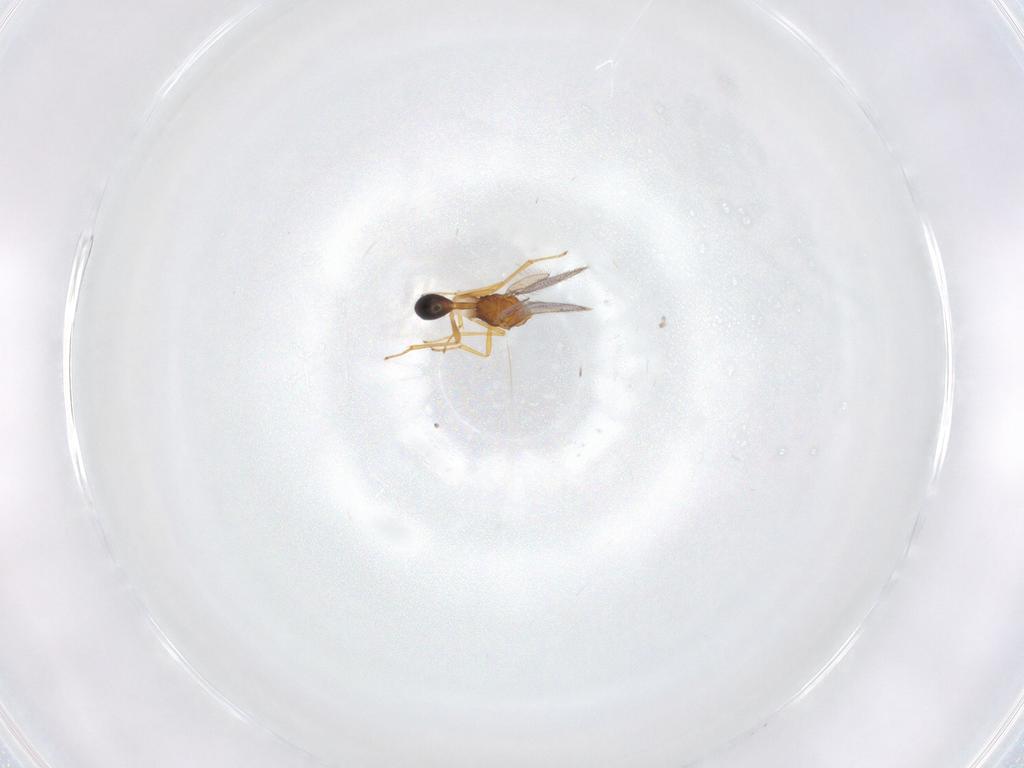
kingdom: Animalia
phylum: Arthropoda
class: Insecta
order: Hymenoptera
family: Diparidae
